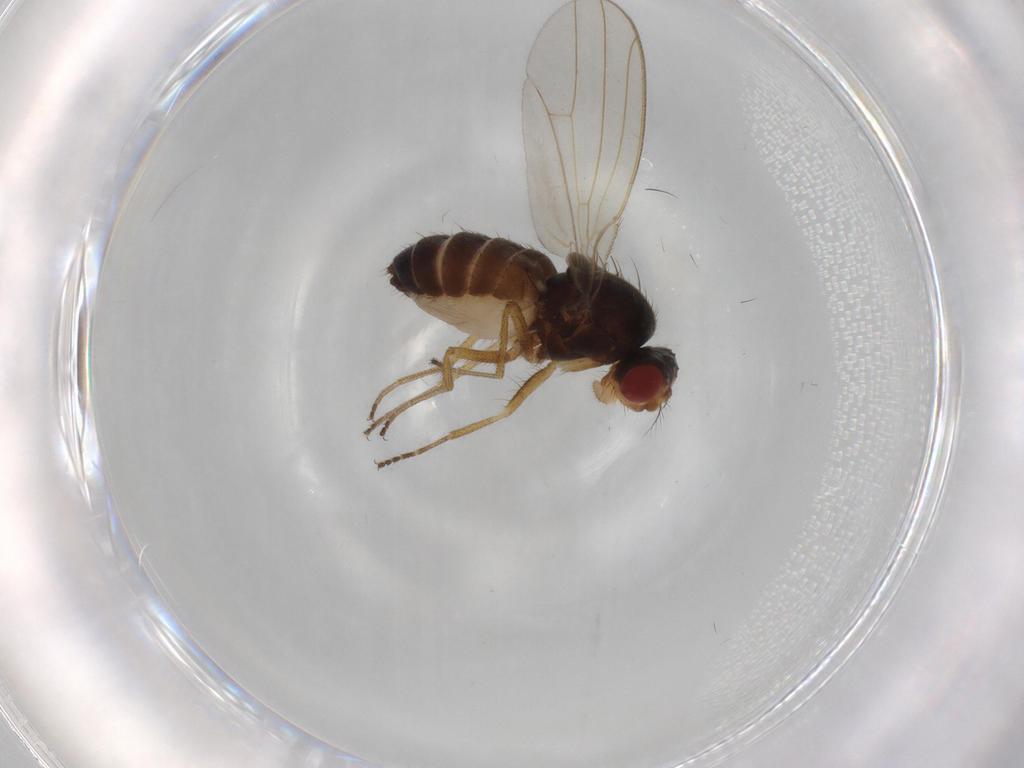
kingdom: Animalia
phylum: Arthropoda
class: Insecta
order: Diptera
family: Drosophilidae
